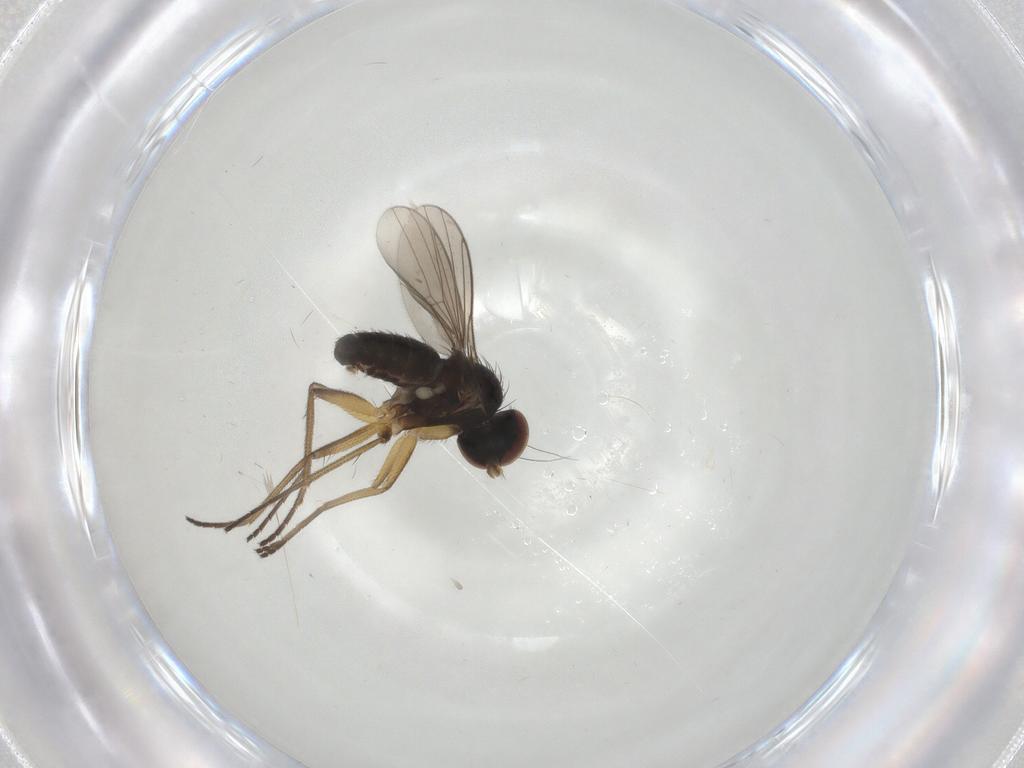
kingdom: Animalia
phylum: Arthropoda
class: Insecta
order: Diptera
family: Dolichopodidae
